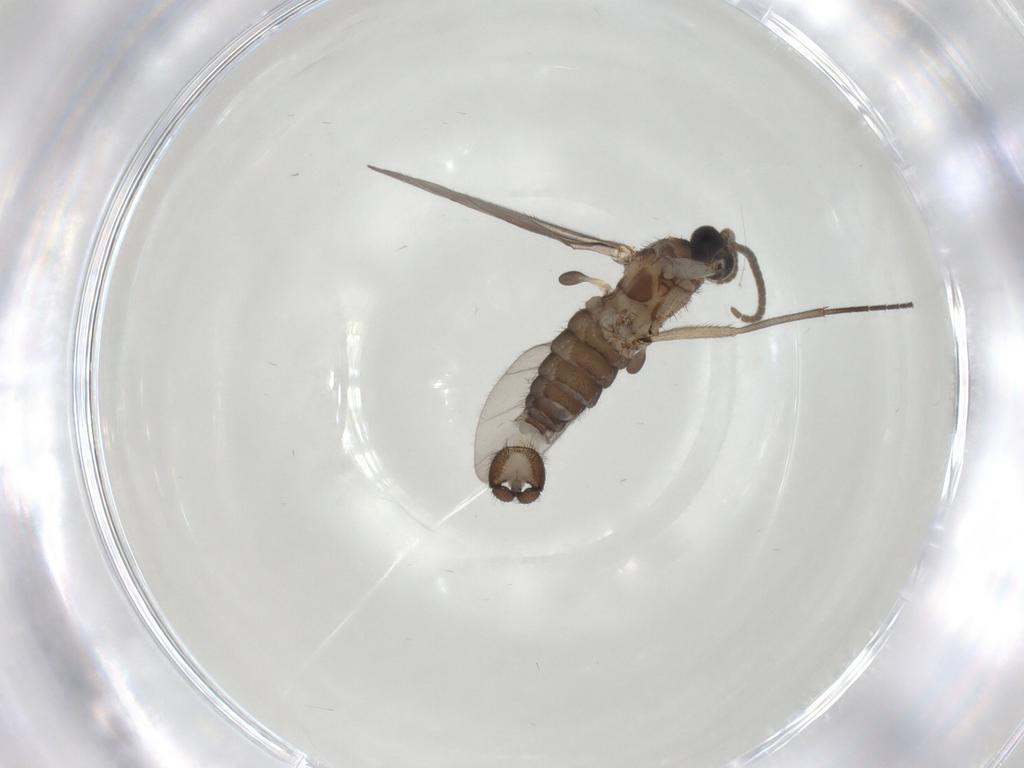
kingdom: Animalia
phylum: Arthropoda
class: Insecta
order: Diptera
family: Sciaridae
